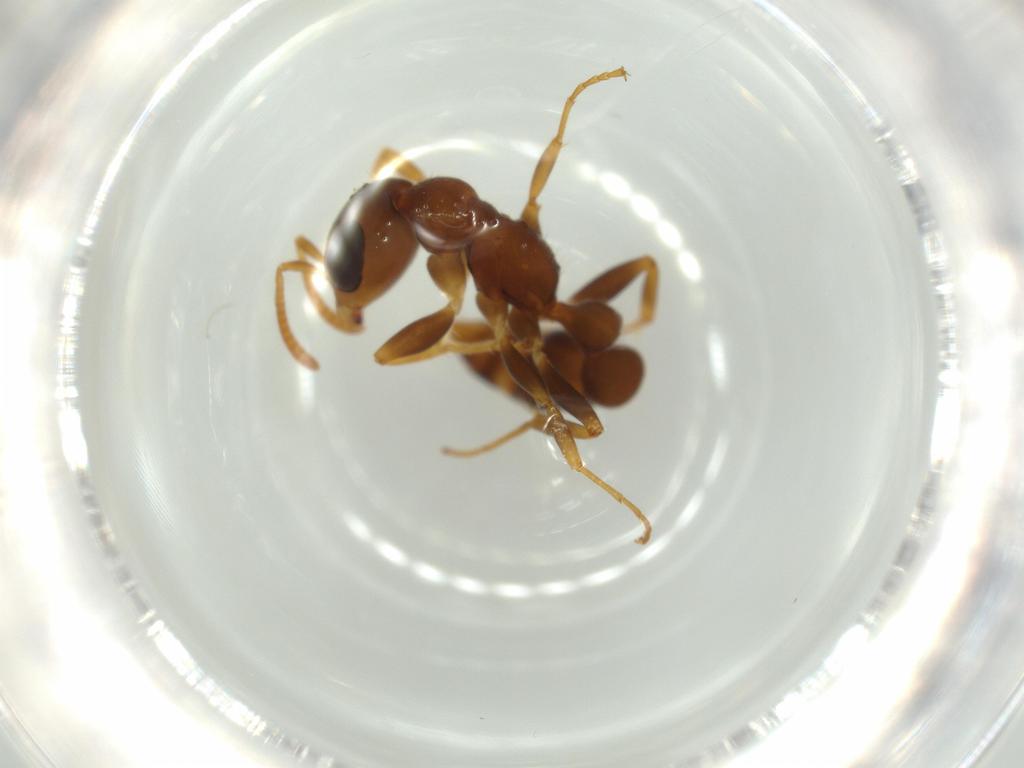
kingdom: Animalia
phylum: Arthropoda
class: Insecta
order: Hymenoptera
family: Formicidae
